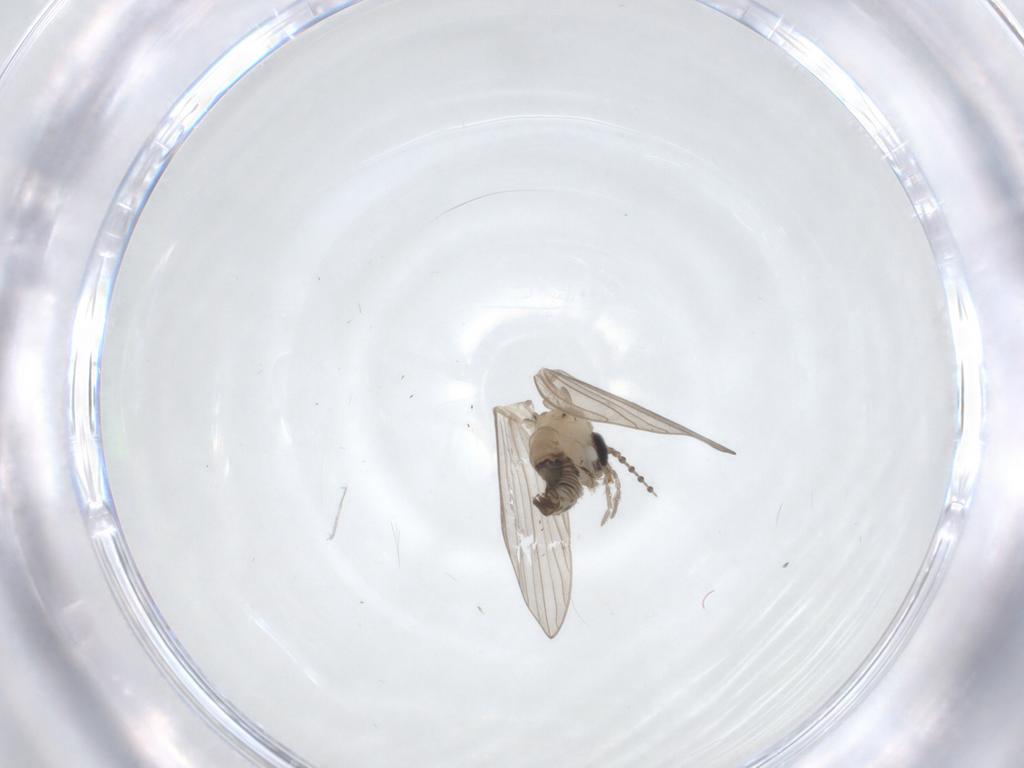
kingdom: Animalia
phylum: Arthropoda
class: Insecta
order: Diptera
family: Psychodidae
